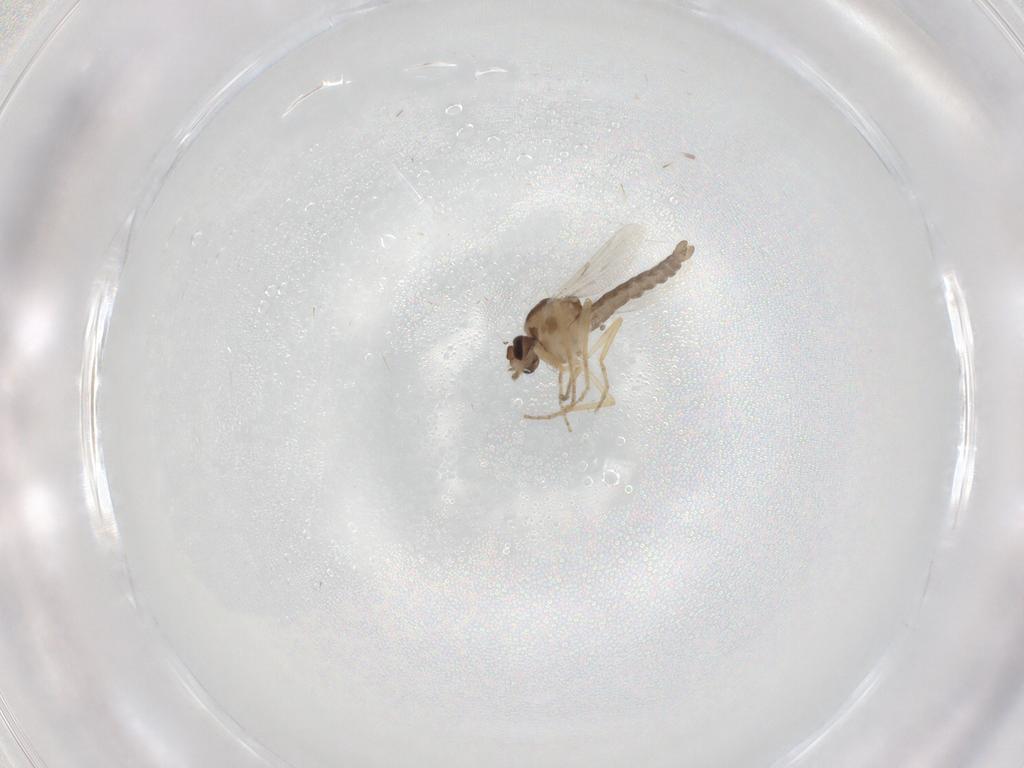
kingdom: Animalia
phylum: Arthropoda
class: Insecta
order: Diptera
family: Ceratopogonidae
